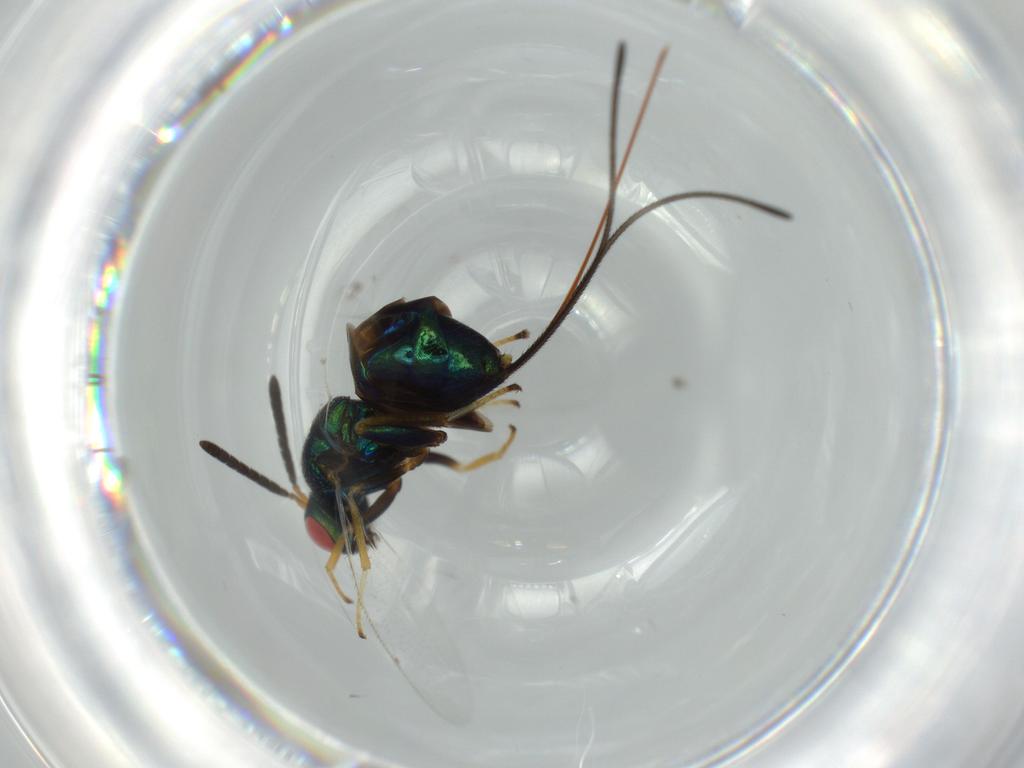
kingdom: Animalia
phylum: Arthropoda
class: Insecta
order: Hymenoptera
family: Torymidae
